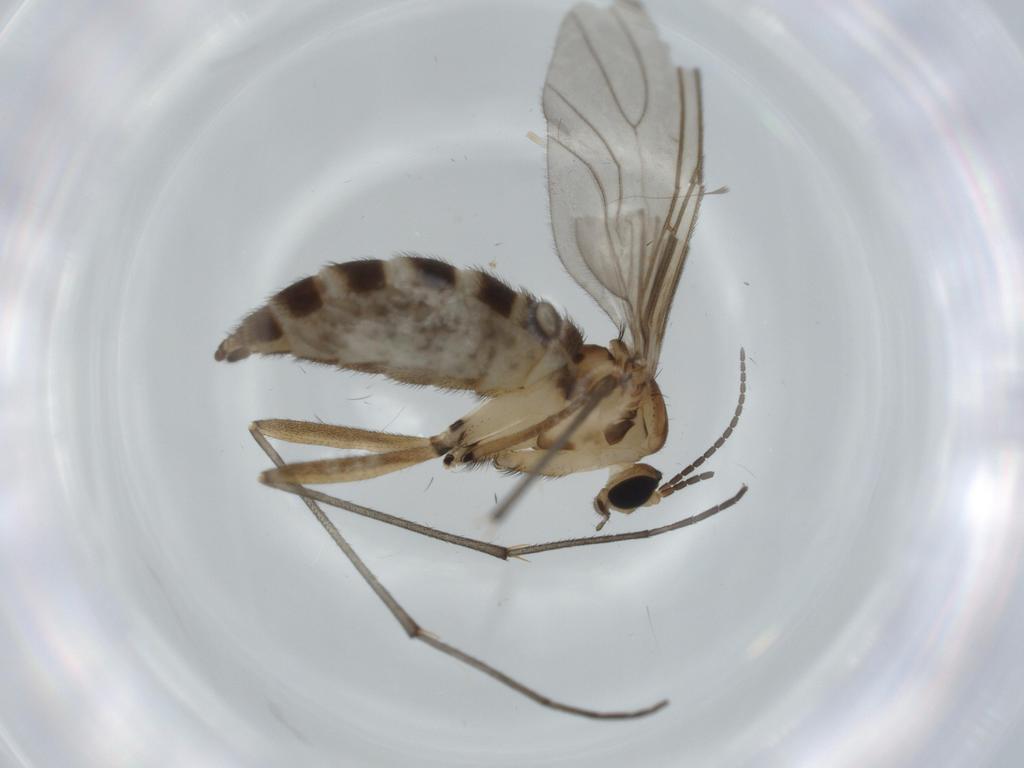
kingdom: Animalia
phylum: Arthropoda
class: Insecta
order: Diptera
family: Sciaridae
